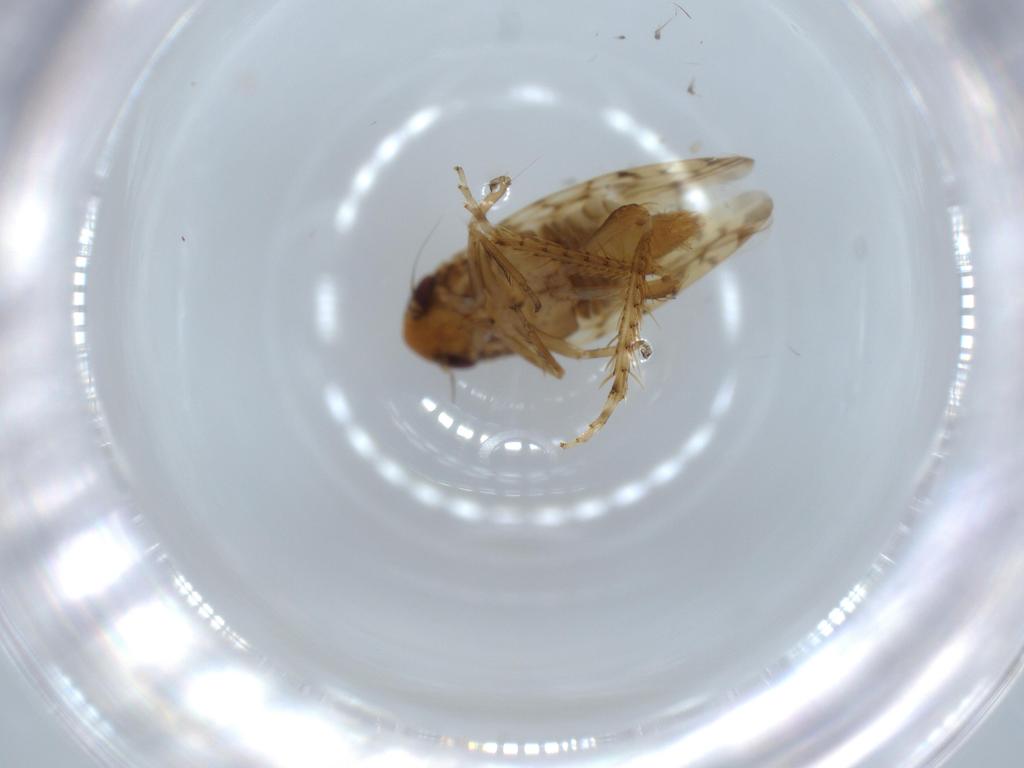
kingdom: Animalia
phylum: Arthropoda
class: Insecta
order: Hemiptera
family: Cicadellidae
